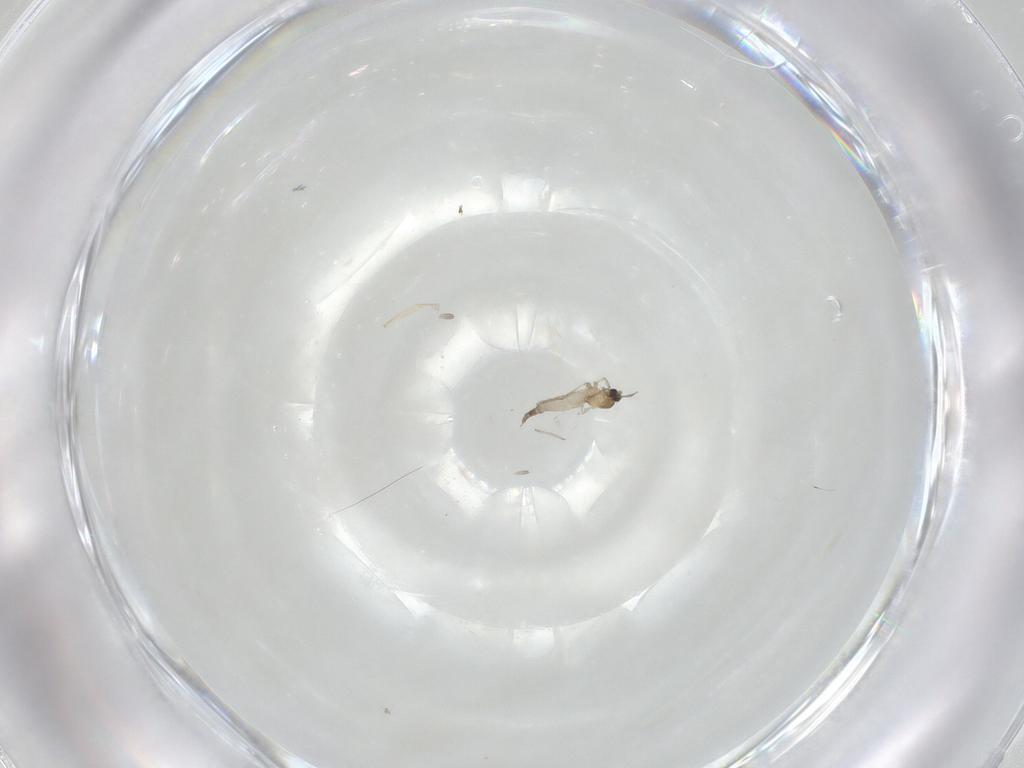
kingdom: Animalia
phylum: Arthropoda
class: Insecta
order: Diptera
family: Cecidomyiidae
